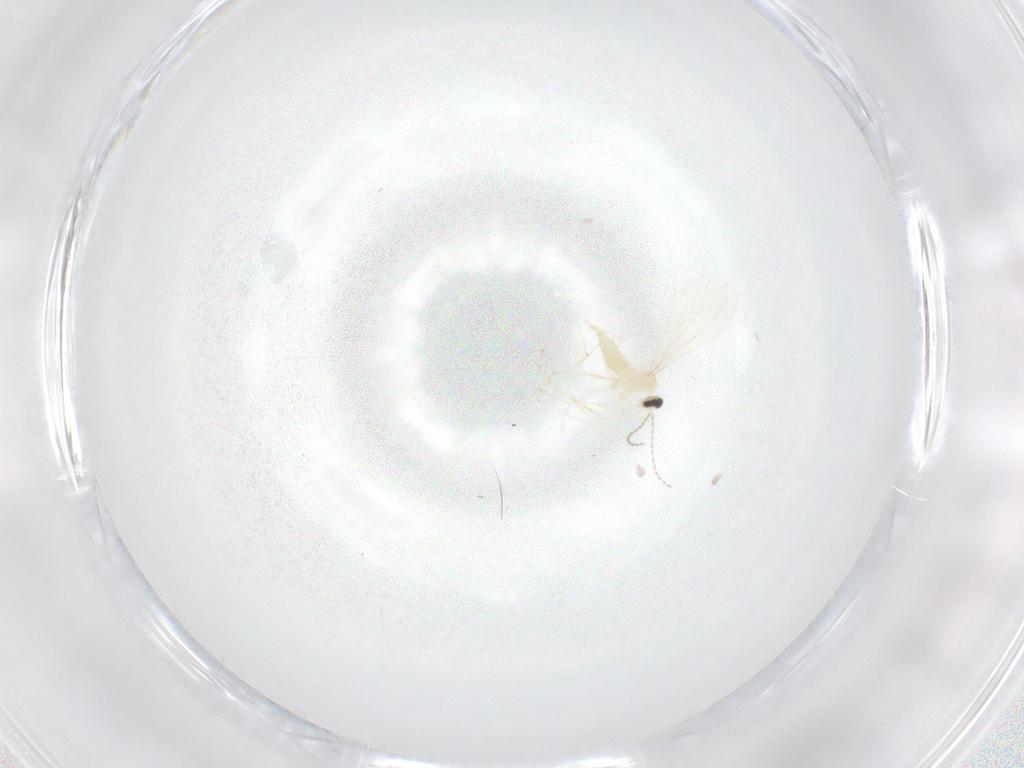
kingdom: Animalia
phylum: Arthropoda
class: Insecta
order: Diptera
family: Cecidomyiidae
